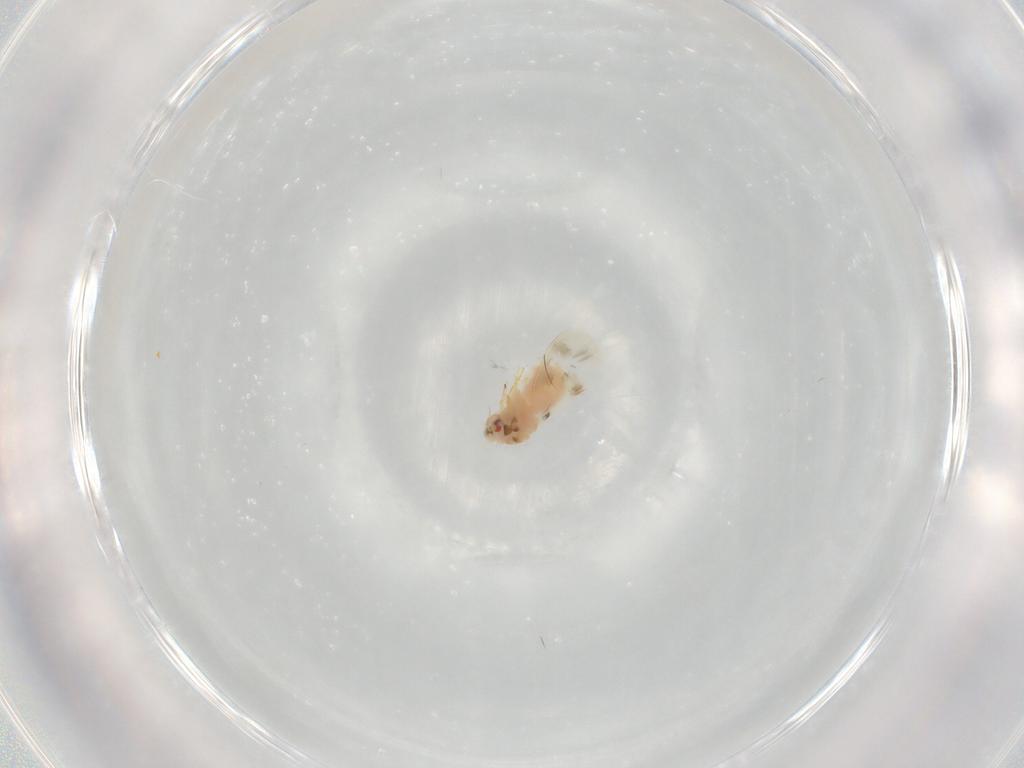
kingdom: Animalia
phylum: Arthropoda
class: Insecta
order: Hemiptera
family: Aleyrodidae
